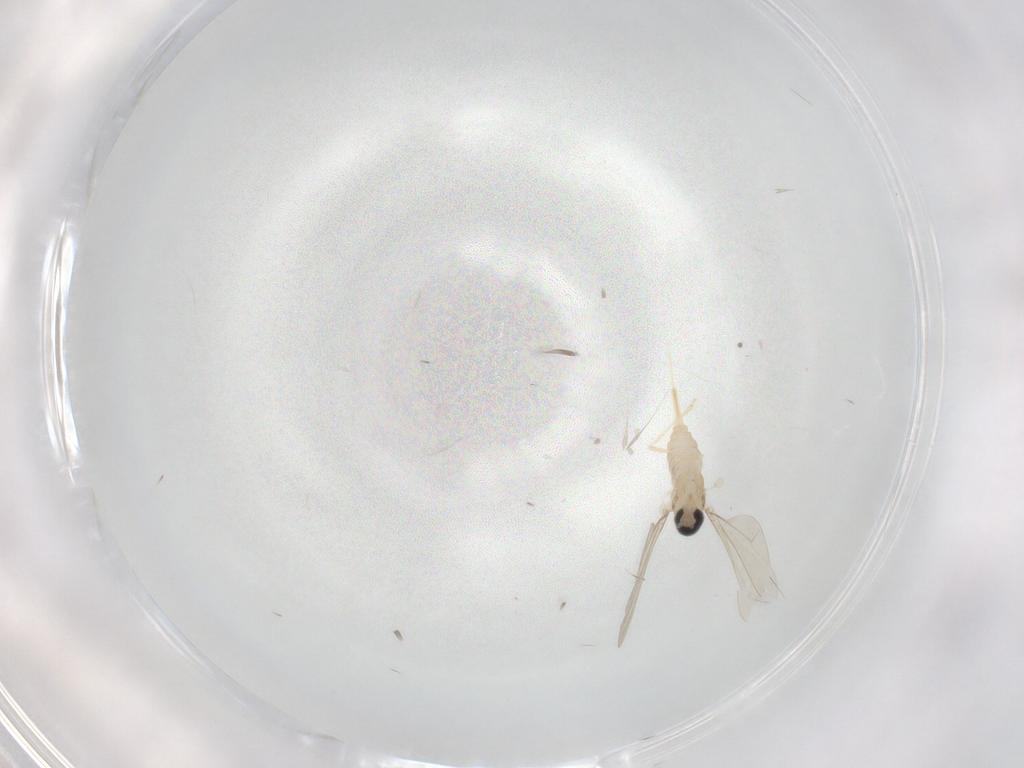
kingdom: Animalia
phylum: Arthropoda
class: Insecta
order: Diptera
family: Cecidomyiidae
